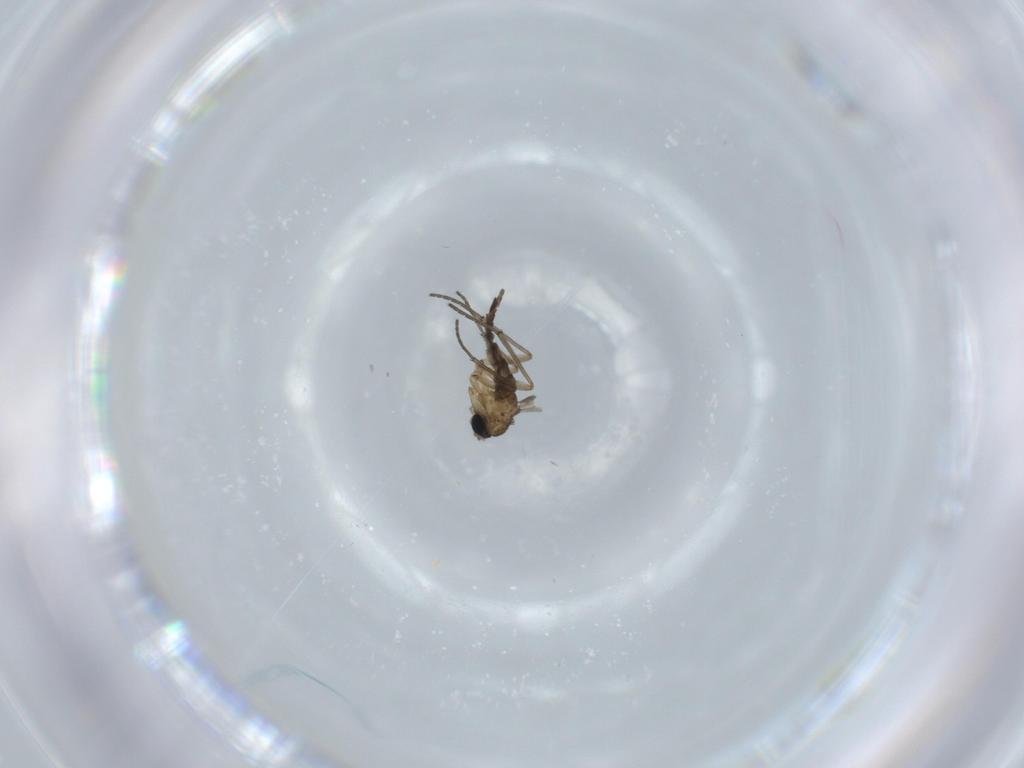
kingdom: Animalia
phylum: Arthropoda
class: Insecta
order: Diptera
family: Sciaridae
